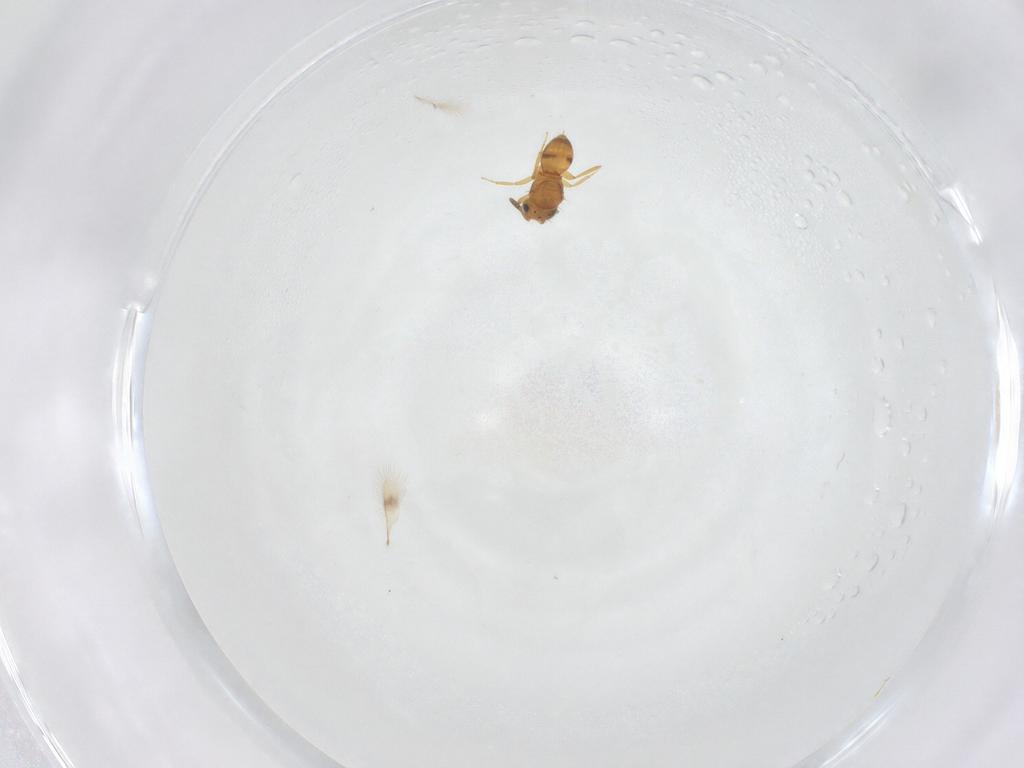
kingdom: Animalia
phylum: Arthropoda
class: Insecta
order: Hymenoptera
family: Scelionidae
